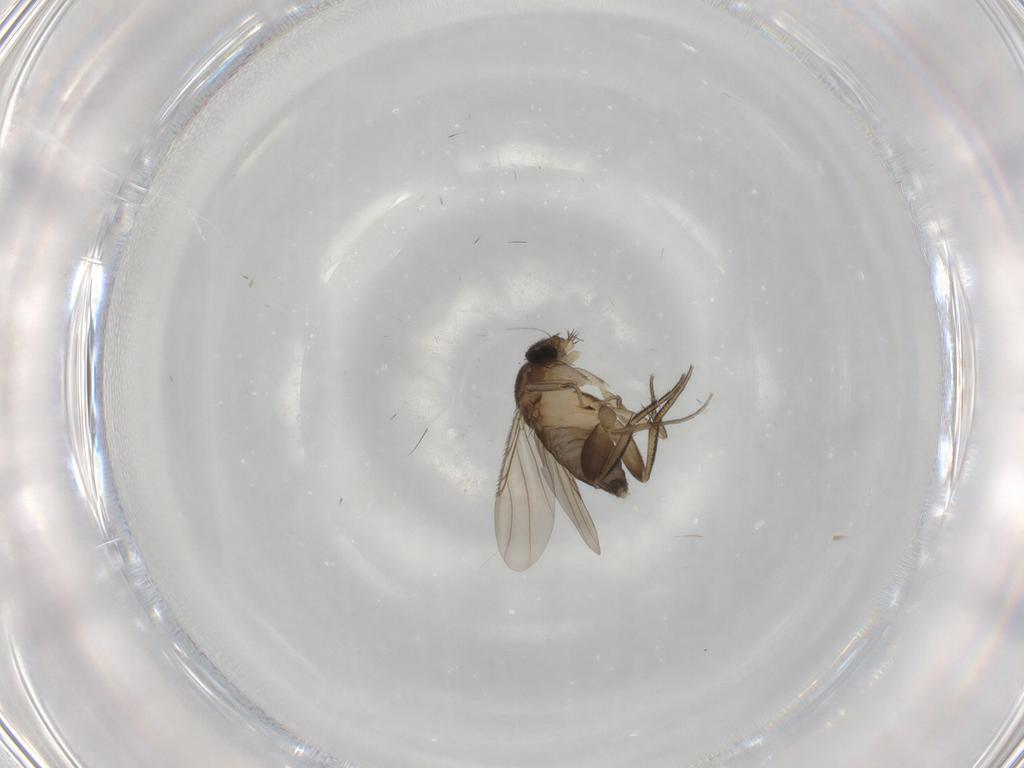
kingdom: Animalia
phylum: Arthropoda
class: Insecta
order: Diptera
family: Phoridae
